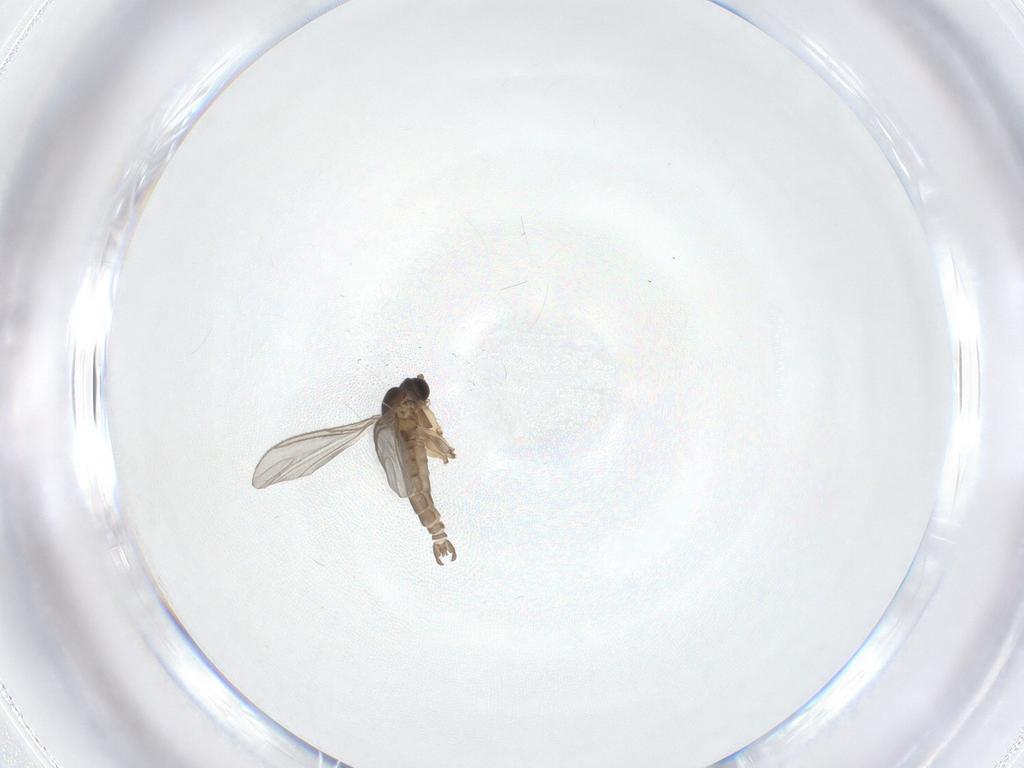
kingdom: Animalia
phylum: Arthropoda
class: Insecta
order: Diptera
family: Sciaridae
